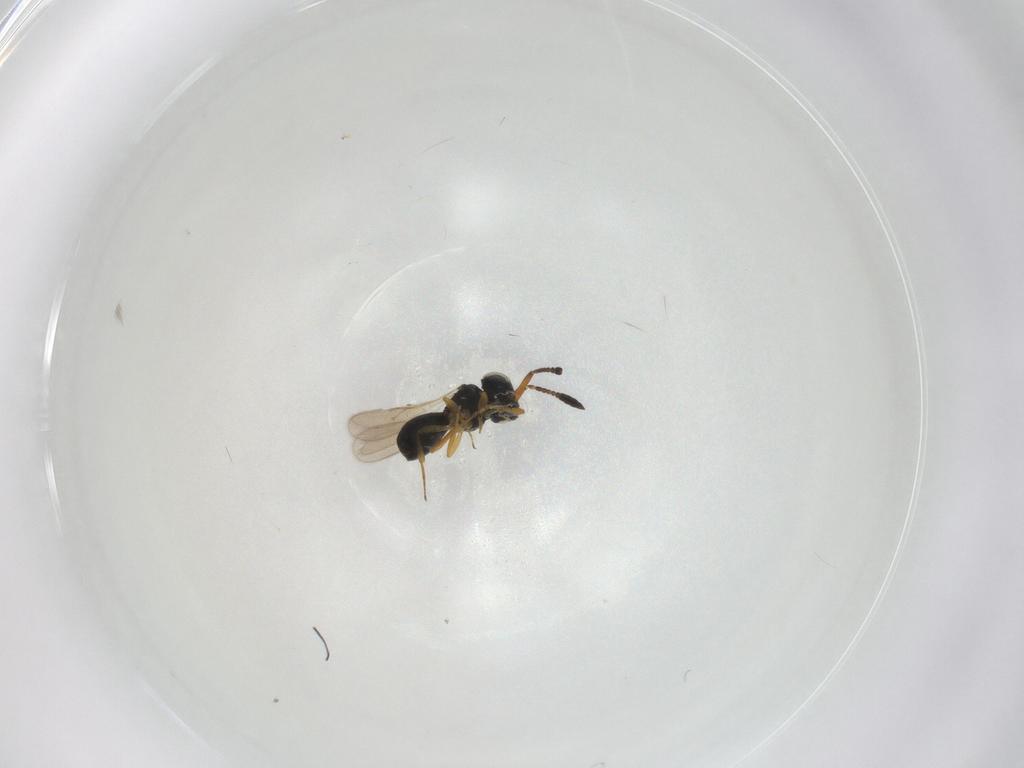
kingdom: Animalia
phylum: Arthropoda
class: Insecta
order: Hymenoptera
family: Scelionidae
